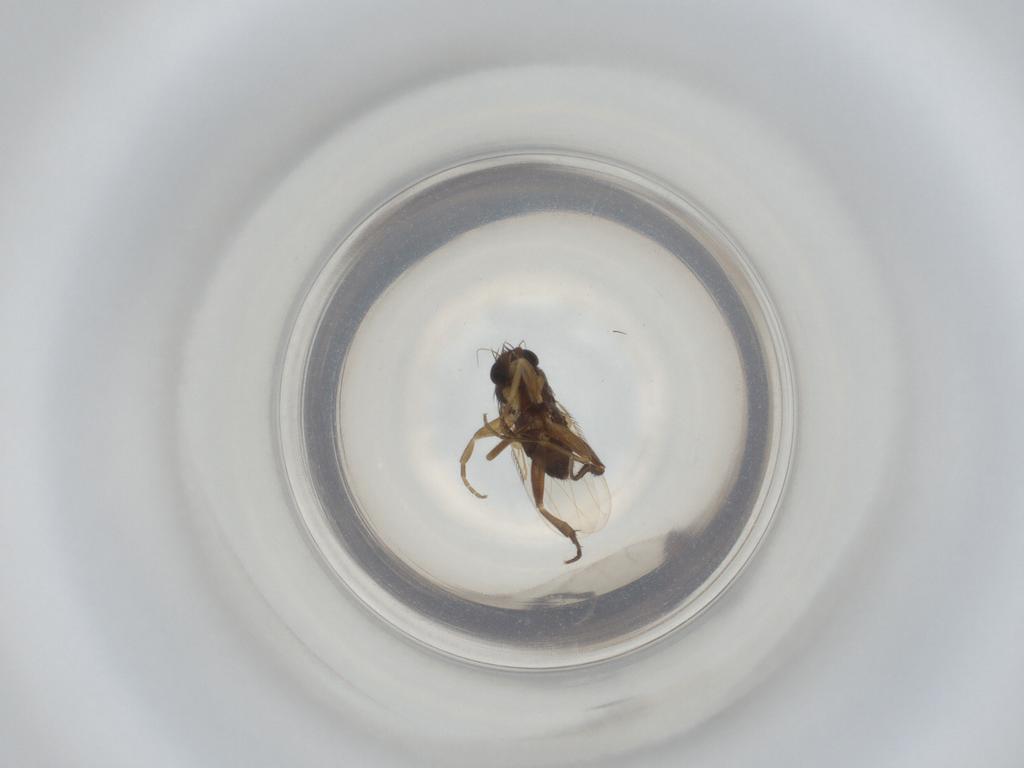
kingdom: Animalia
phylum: Arthropoda
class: Insecta
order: Diptera
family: Phoridae
